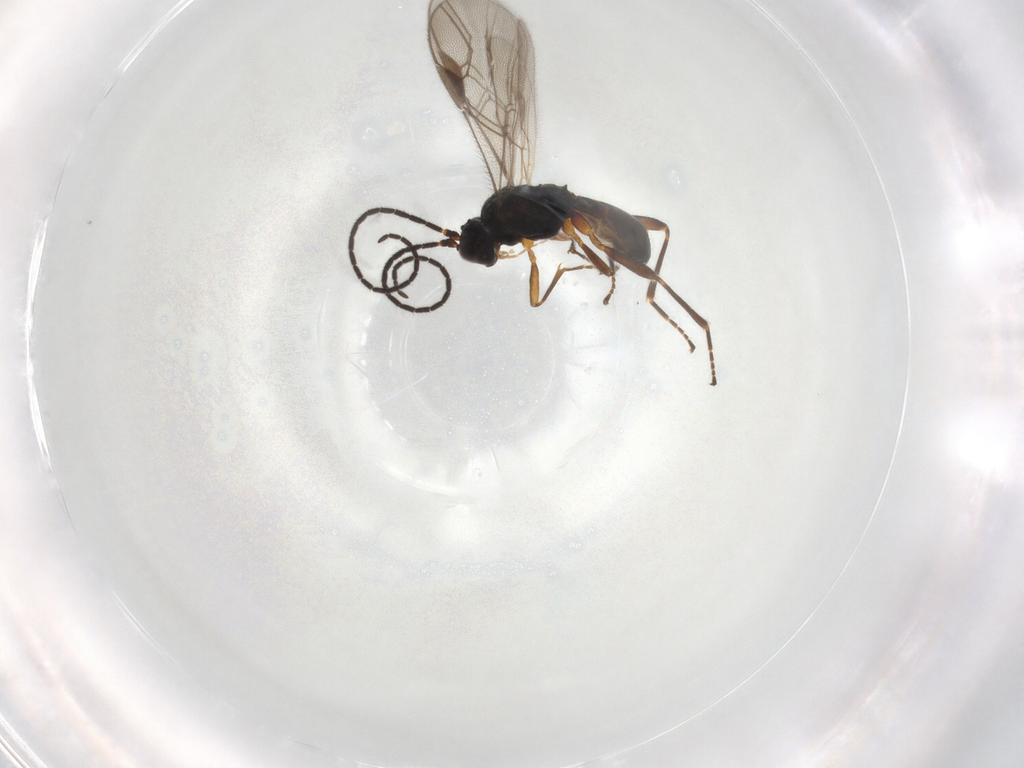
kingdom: Animalia
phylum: Arthropoda
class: Insecta
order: Hymenoptera
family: Braconidae
